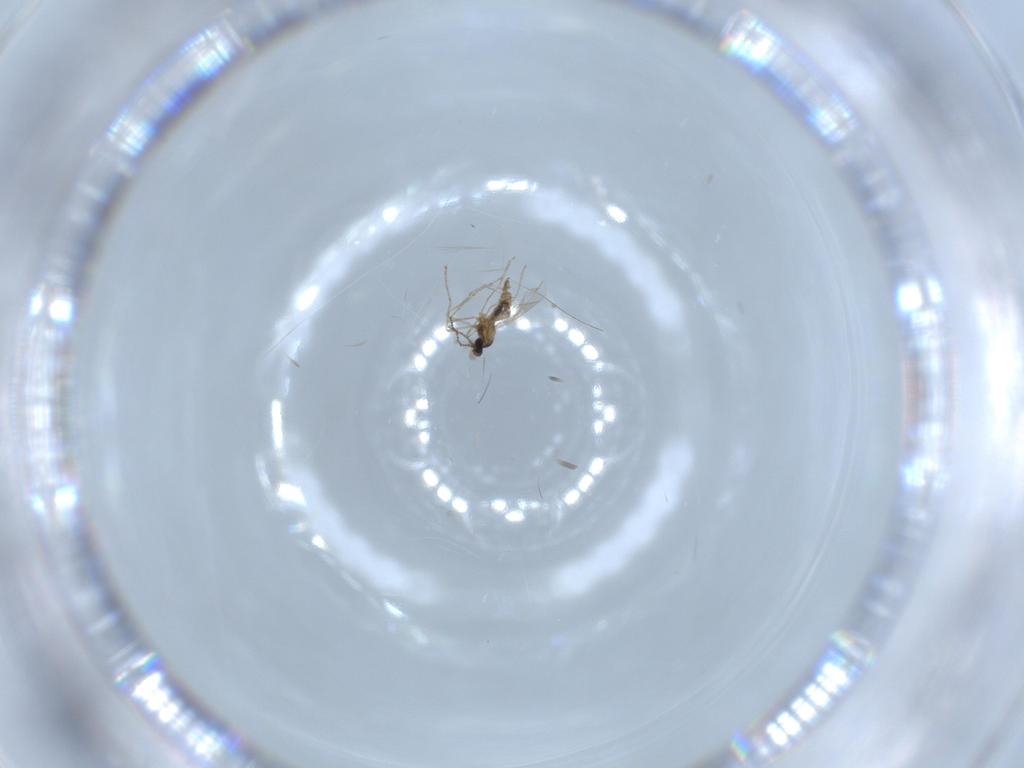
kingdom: Animalia
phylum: Arthropoda
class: Insecta
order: Diptera
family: Cecidomyiidae
